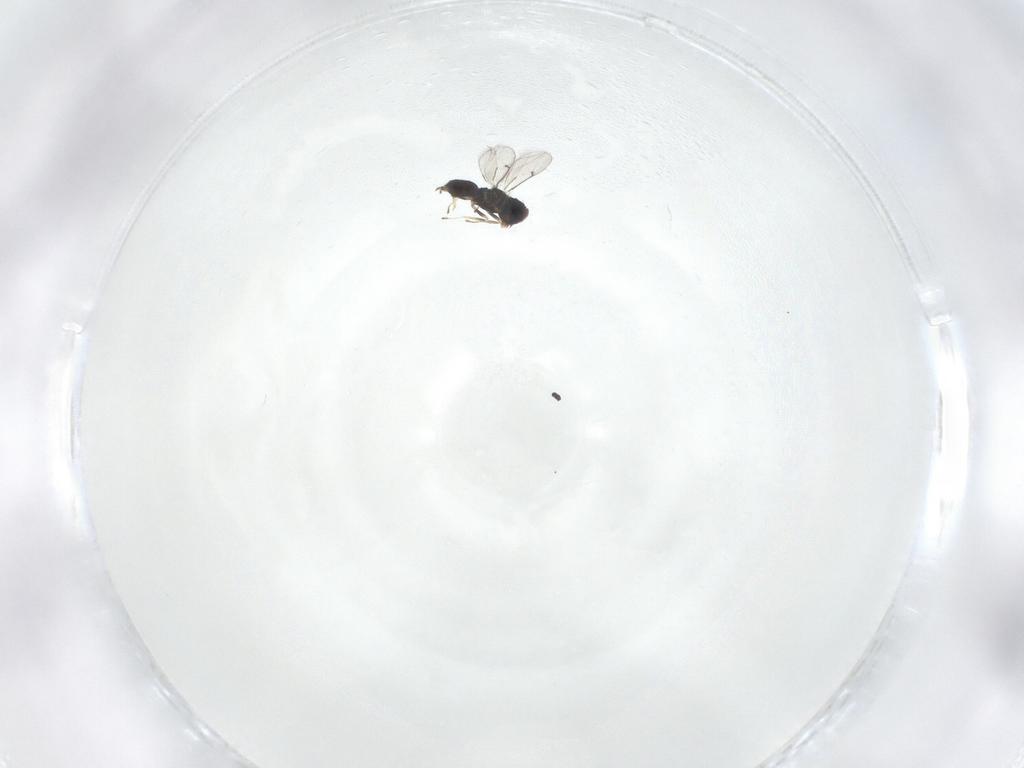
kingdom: Animalia
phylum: Arthropoda
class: Insecta
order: Hymenoptera
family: Eulophidae
